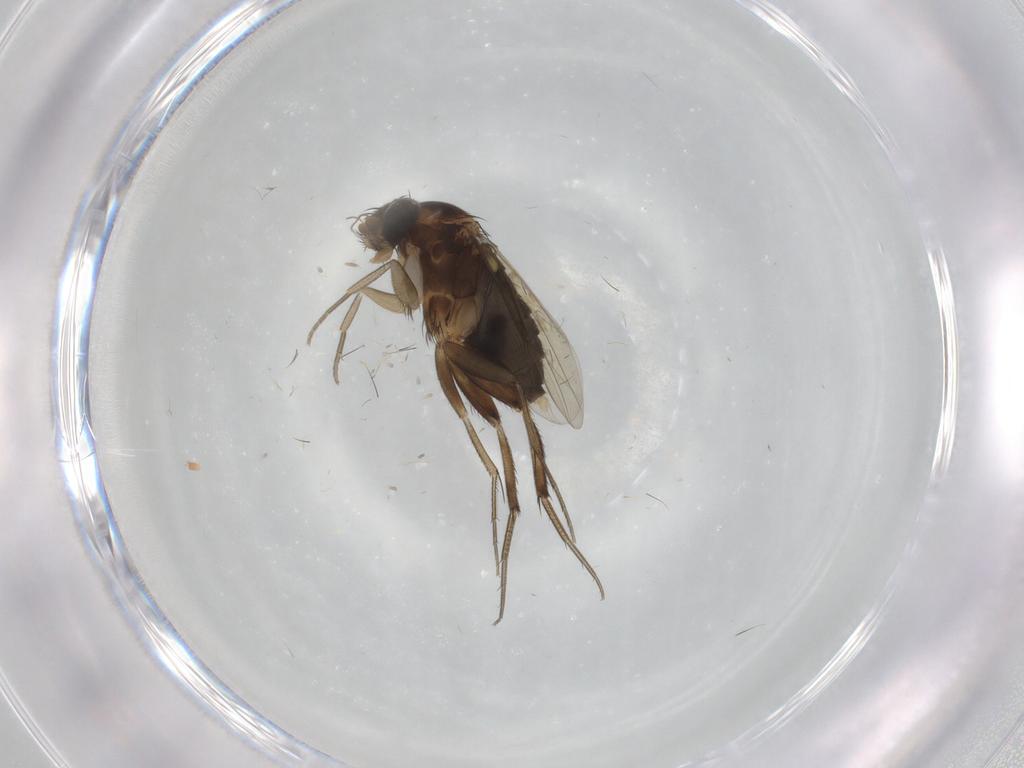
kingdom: Animalia
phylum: Arthropoda
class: Insecta
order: Diptera
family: Phoridae
